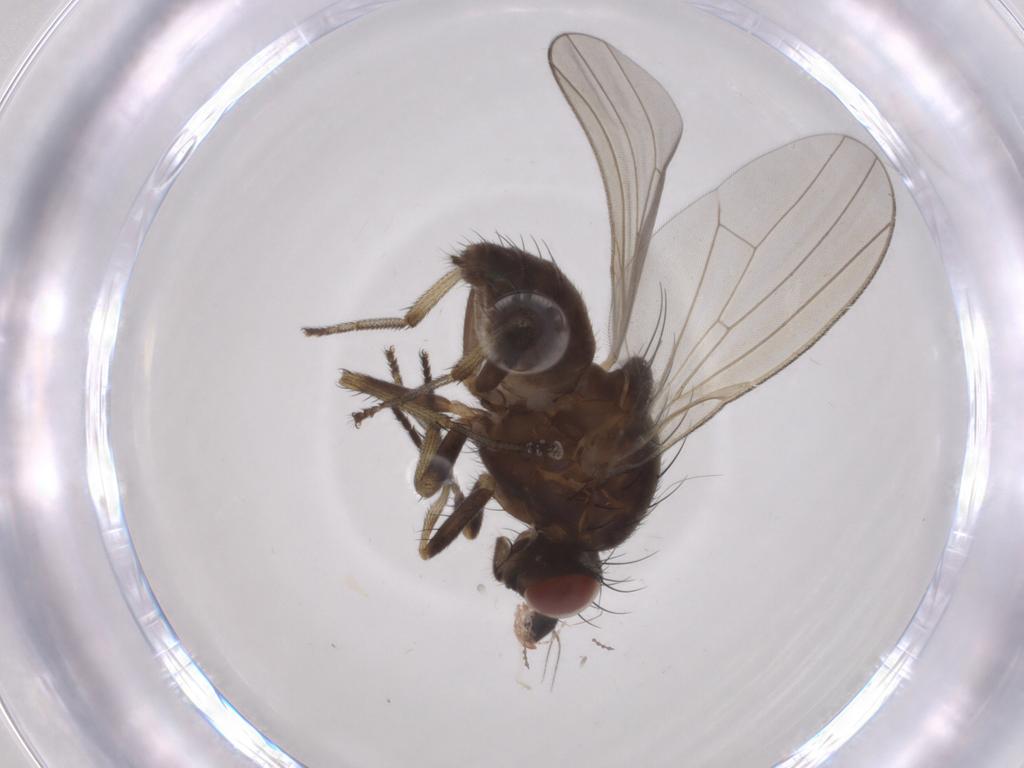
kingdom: Animalia
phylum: Arthropoda
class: Insecta
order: Diptera
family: Lauxaniidae
